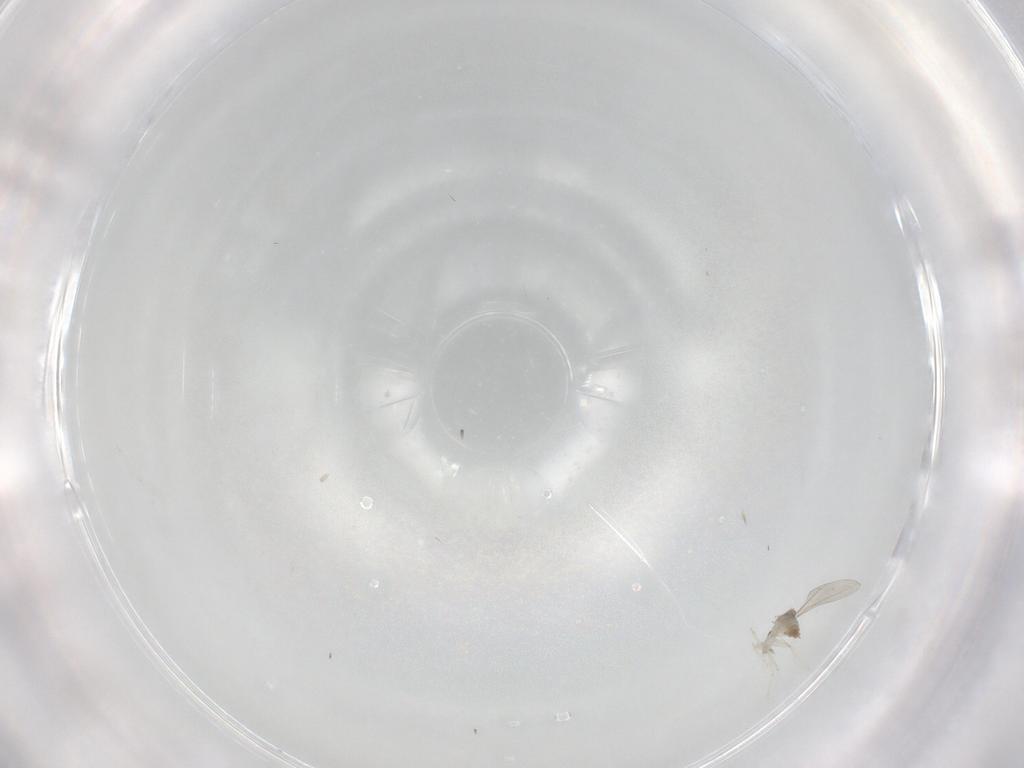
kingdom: Animalia
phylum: Arthropoda
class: Insecta
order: Diptera
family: Cecidomyiidae
